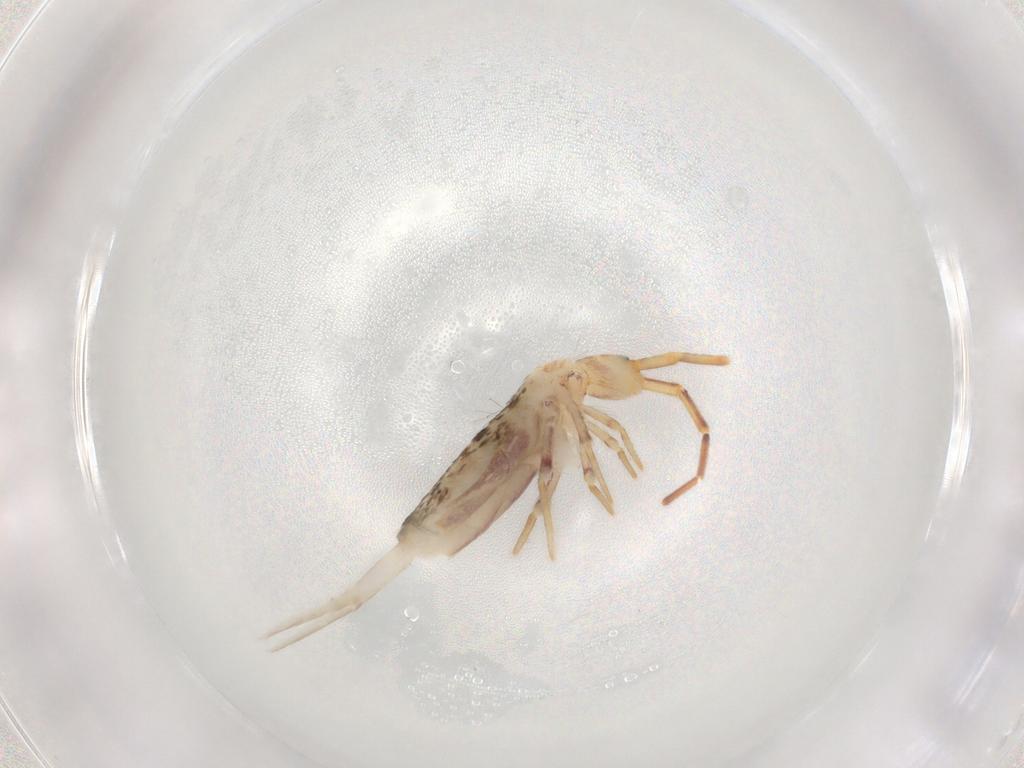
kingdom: Animalia
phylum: Arthropoda
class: Collembola
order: Poduromorpha
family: Hypogastruridae
